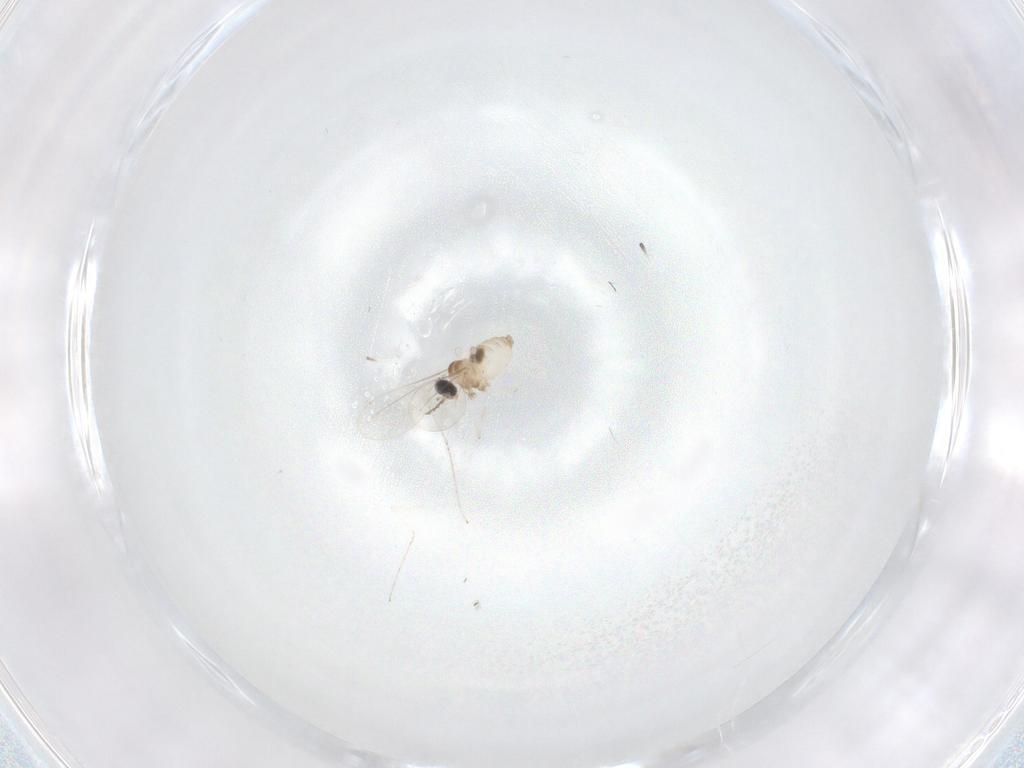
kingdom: Animalia
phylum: Arthropoda
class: Insecta
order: Diptera
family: Cecidomyiidae
